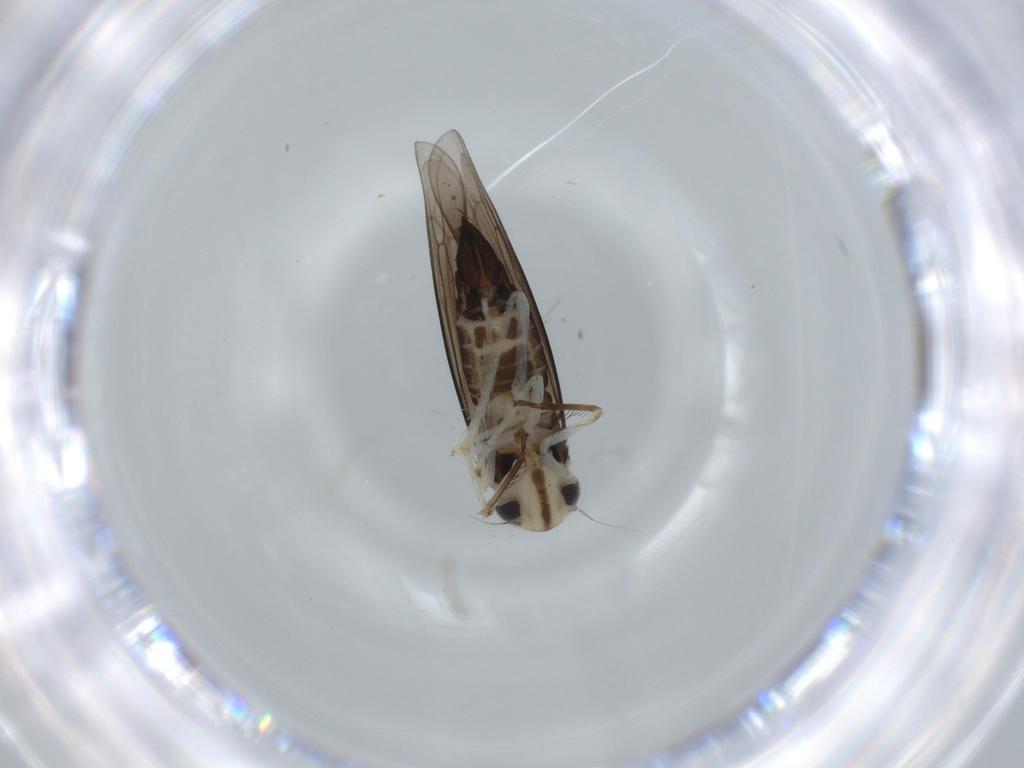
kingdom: Animalia
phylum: Arthropoda
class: Insecta
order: Hemiptera
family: Cicadellidae
